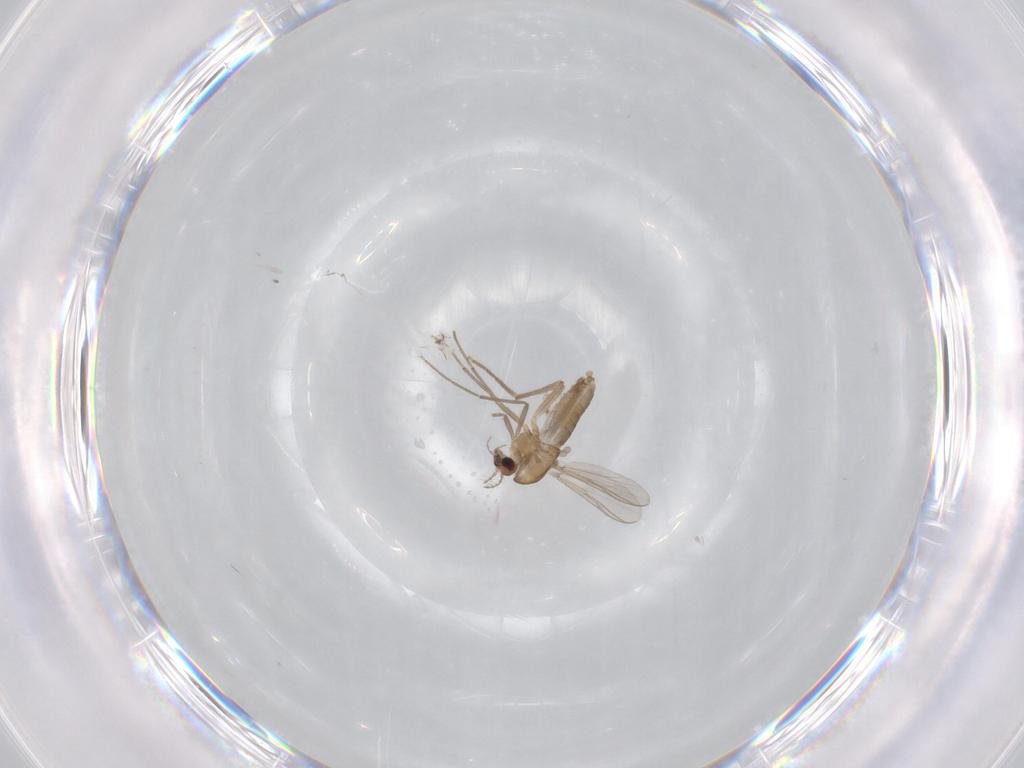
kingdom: Animalia
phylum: Arthropoda
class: Insecta
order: Diptera
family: Chironomidae
